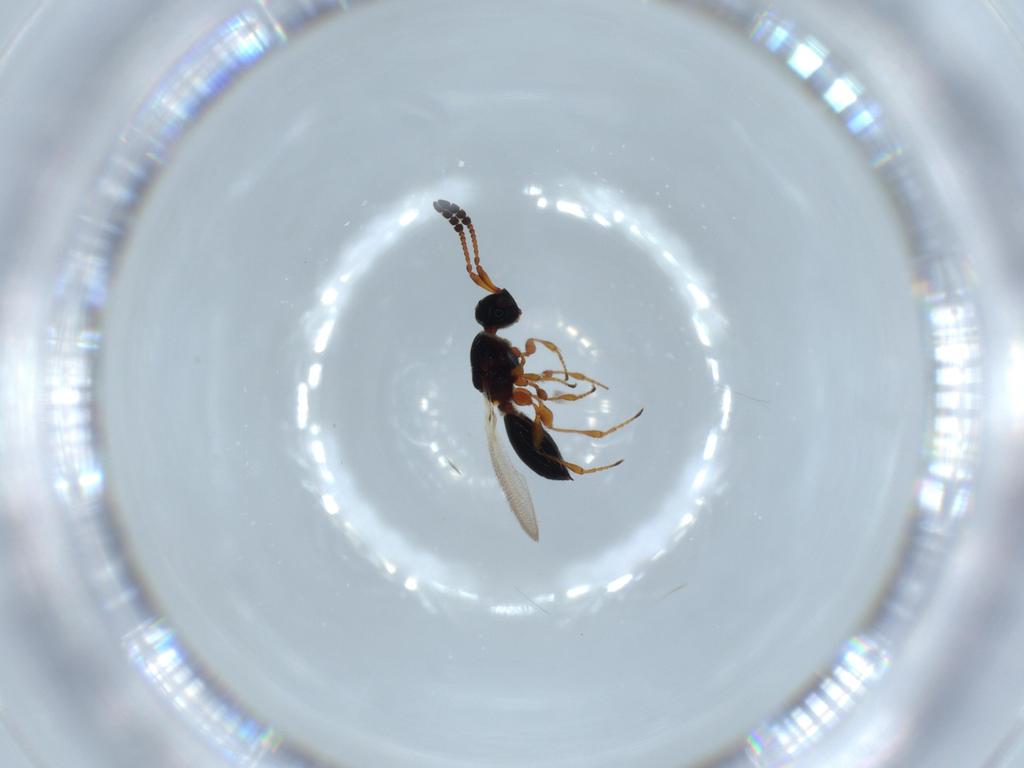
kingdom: Animalia
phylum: Arthropoda
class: Insecta
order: Hymenoptera
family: Diapriidae
